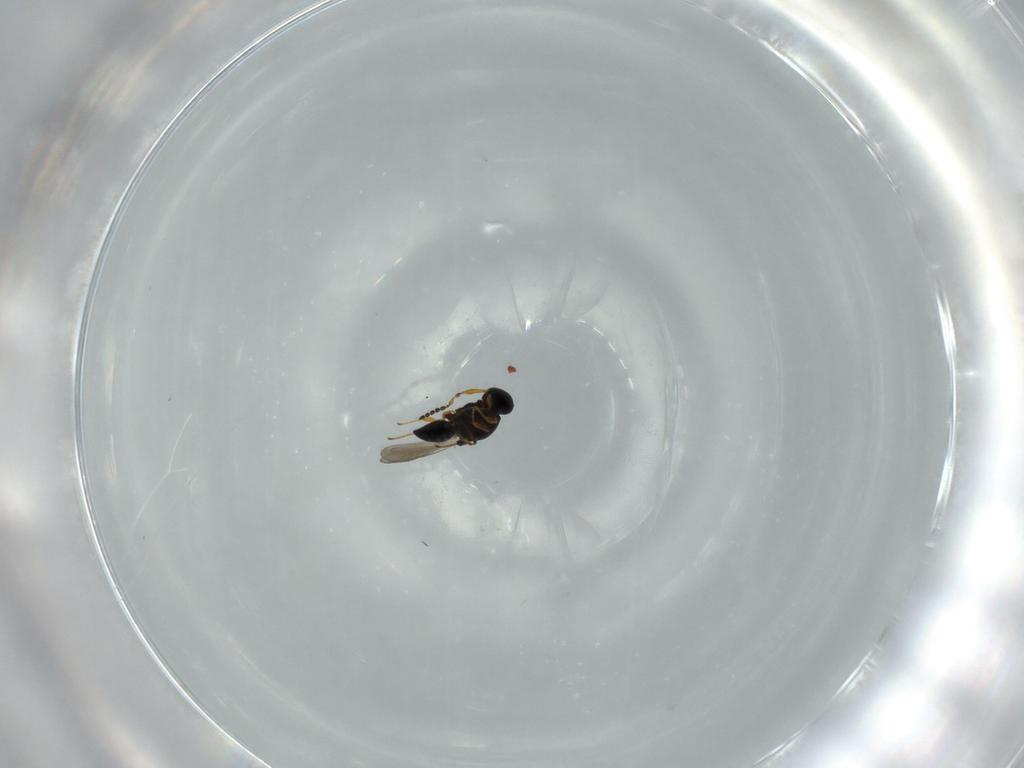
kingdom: Animalia
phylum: Arthropoda
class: Insecta
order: Hymenoptera
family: Platygastridae
